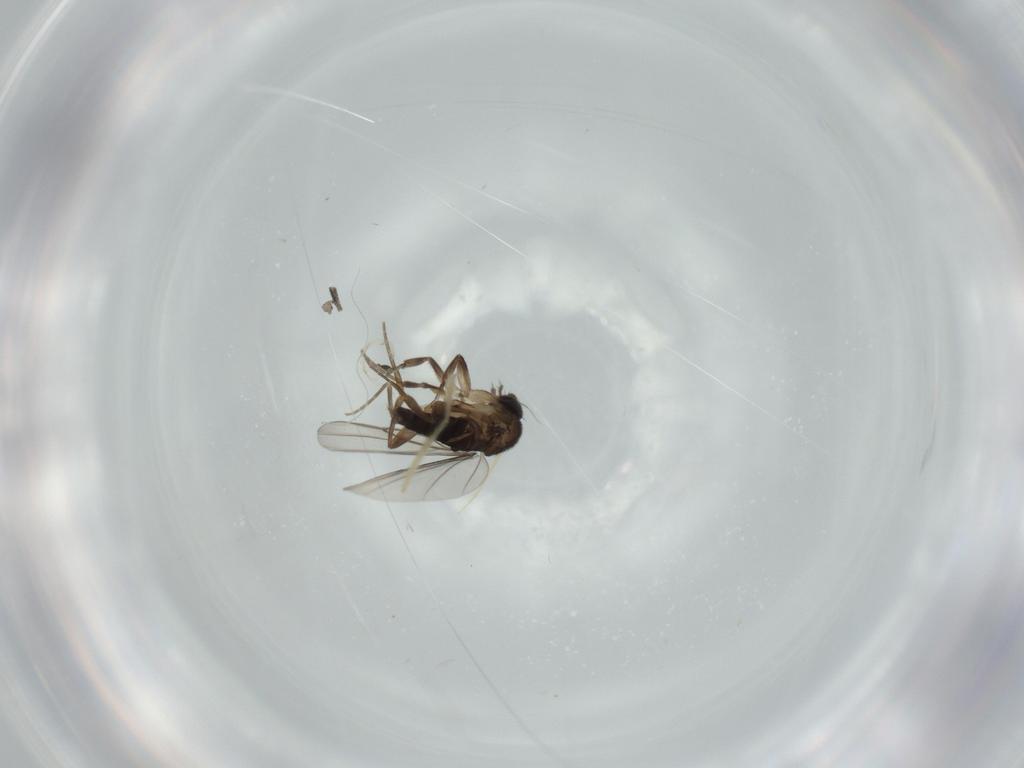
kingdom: Animalia
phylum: Arthropoda
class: Insecta
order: Diptera
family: Phoridae
